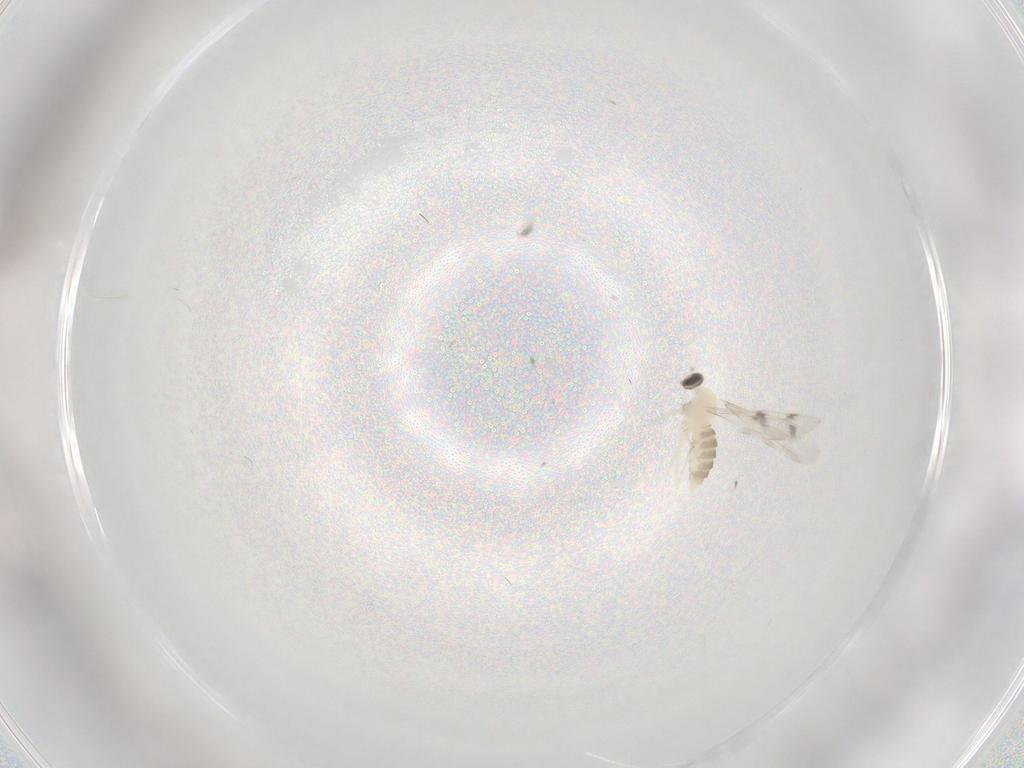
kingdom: Animalia
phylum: Arthropoda
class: Insecta
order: Diptera
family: Cecidomyiidae
